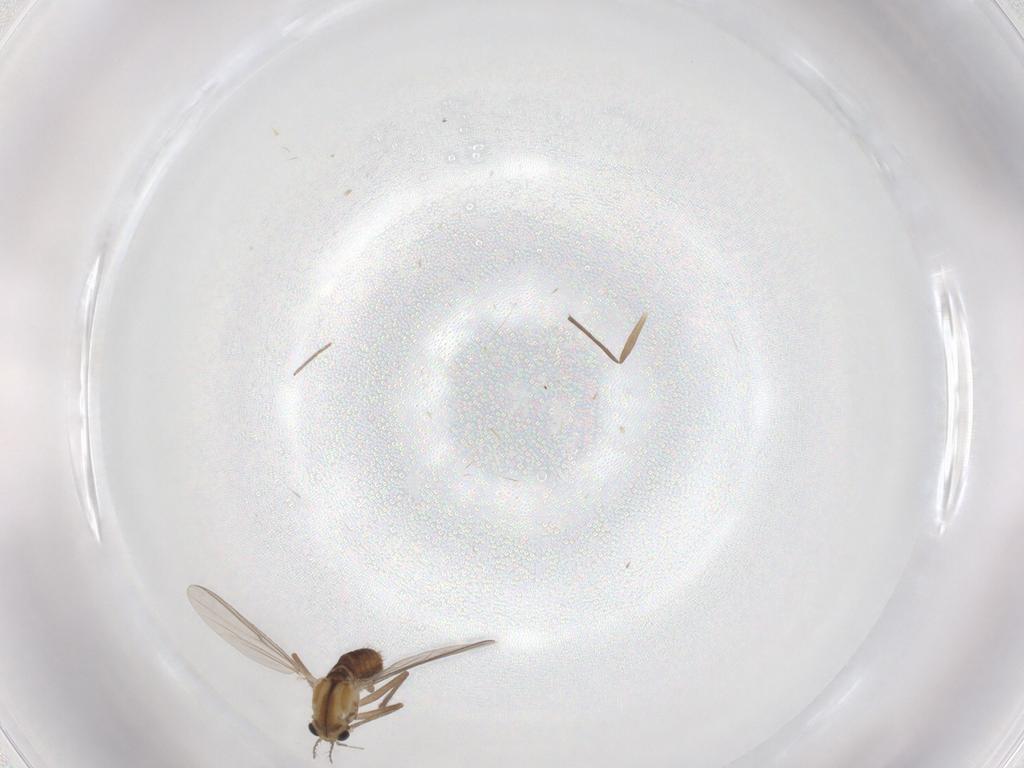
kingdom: Animalia
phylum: Arthropoda
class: Insecta
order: Diptera
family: Chironomidae
